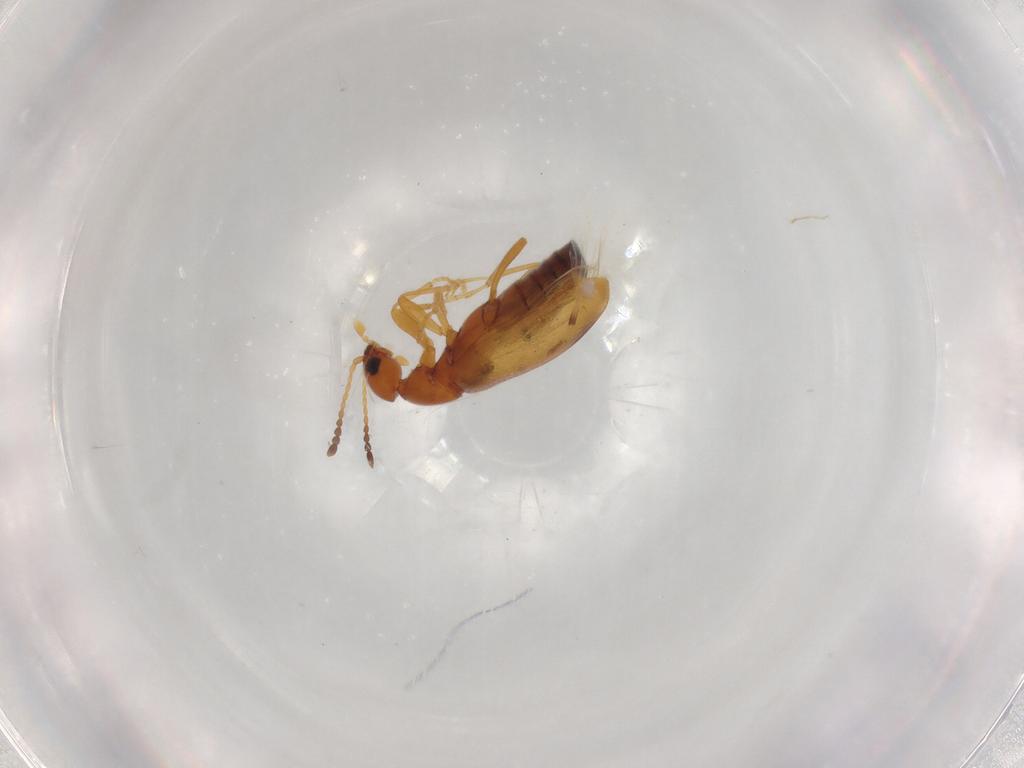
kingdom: Animalia
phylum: Arthropoda
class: Insecta
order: Coleoptera
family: Anthicidae
